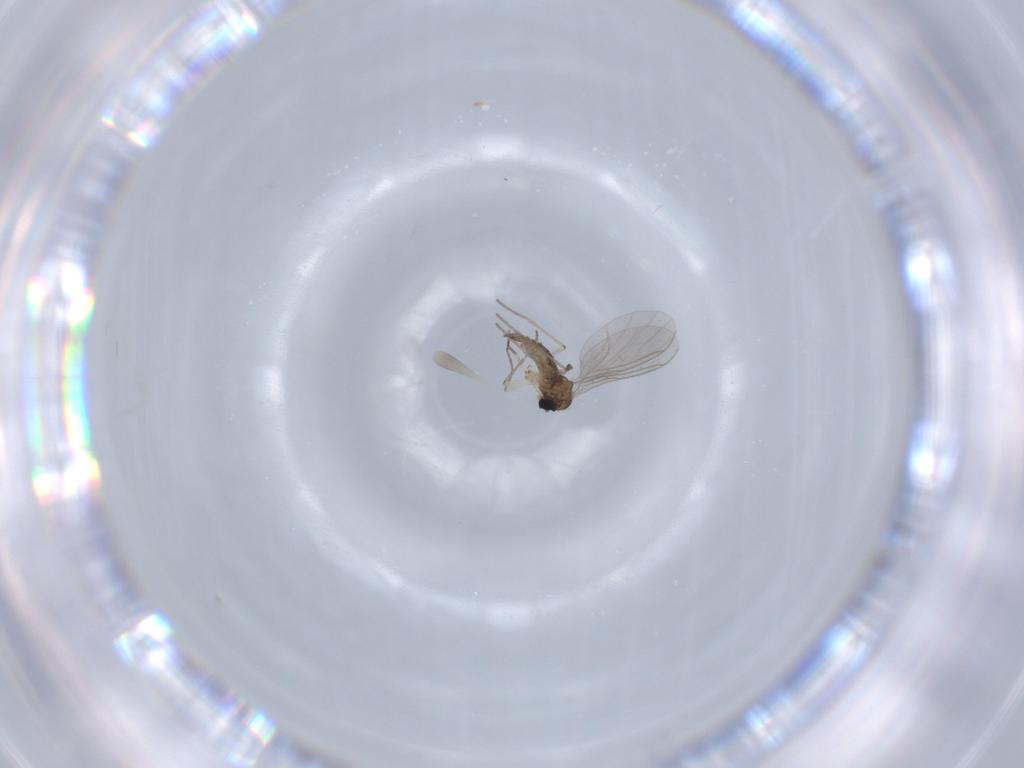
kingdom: Animalia
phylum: Arthropoda
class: Insecta
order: Diptera
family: Sciaridae
